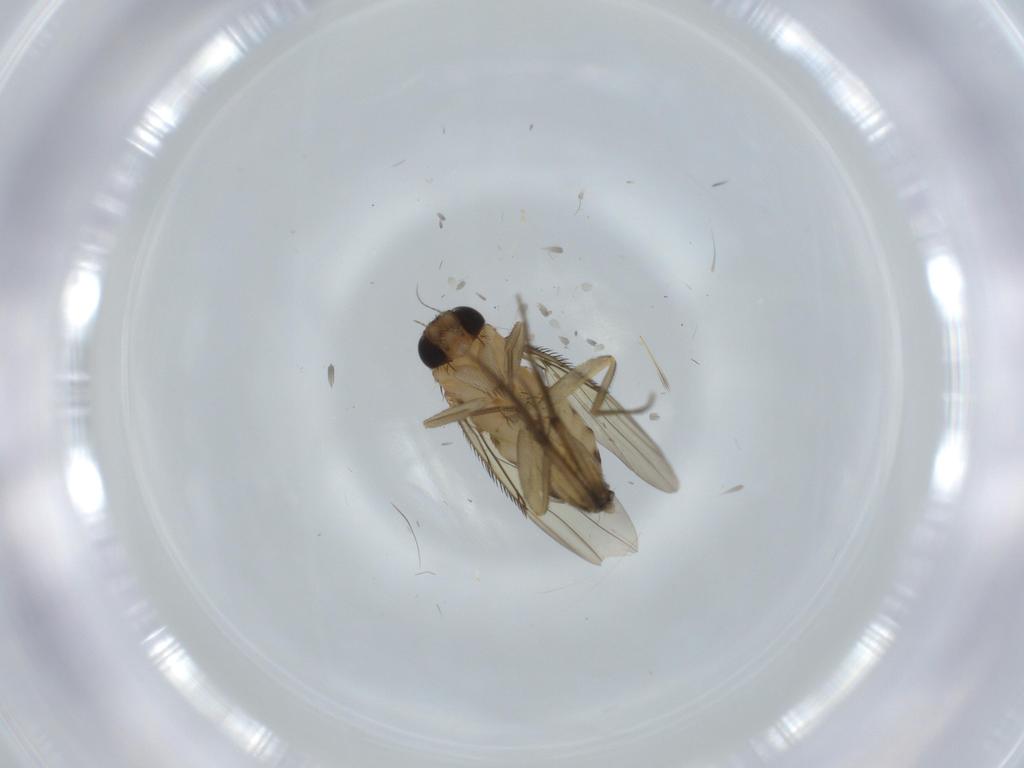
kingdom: Animalia
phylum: Arthropoda
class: Insecta
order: Diptera
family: Phoridae
